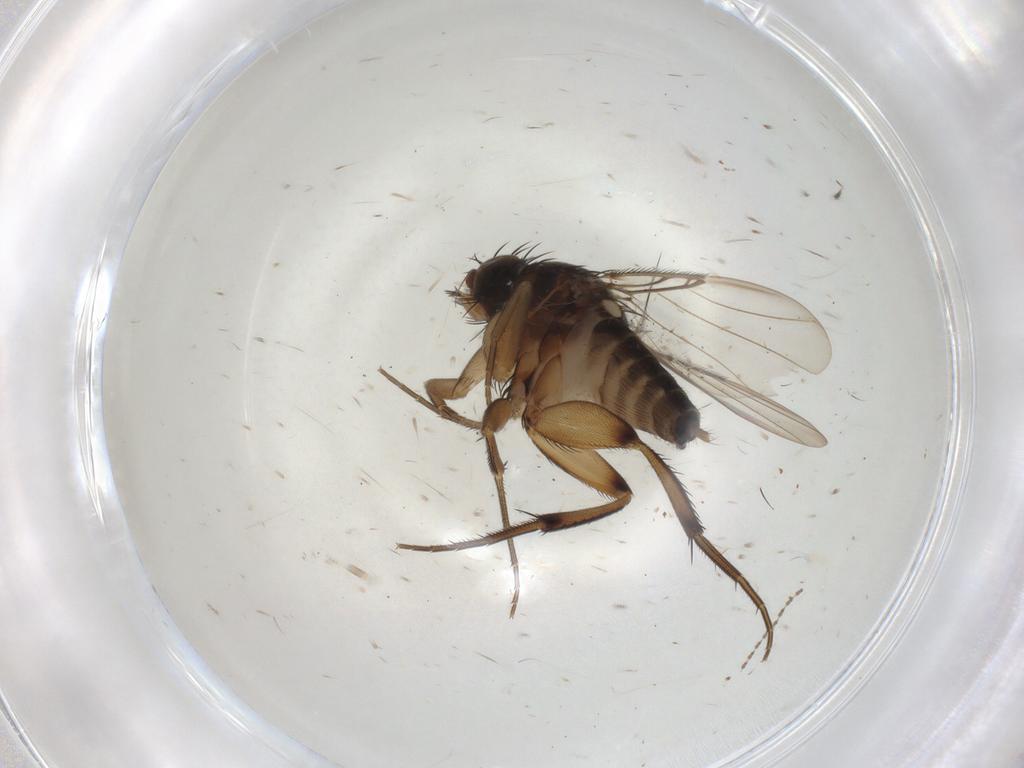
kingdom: Animalia
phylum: Arthropoda
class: Insecta
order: Diptera
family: Phoridae
